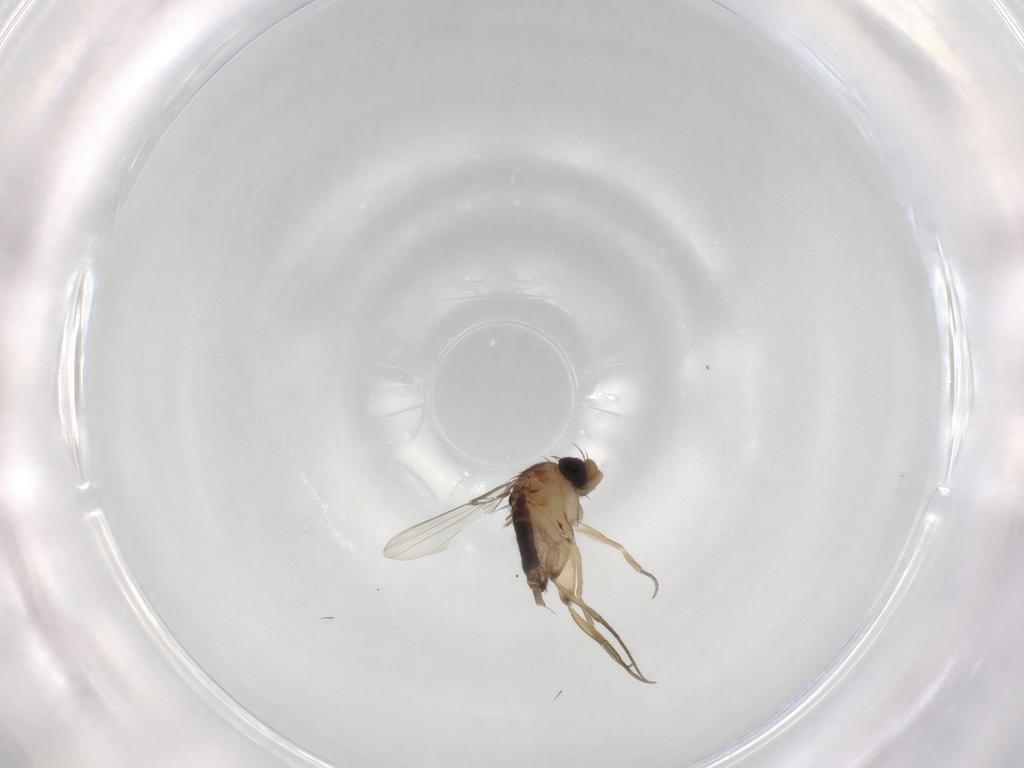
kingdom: Animalia
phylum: Arthropoda
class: Insecta
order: Diptera
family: Phoridae
